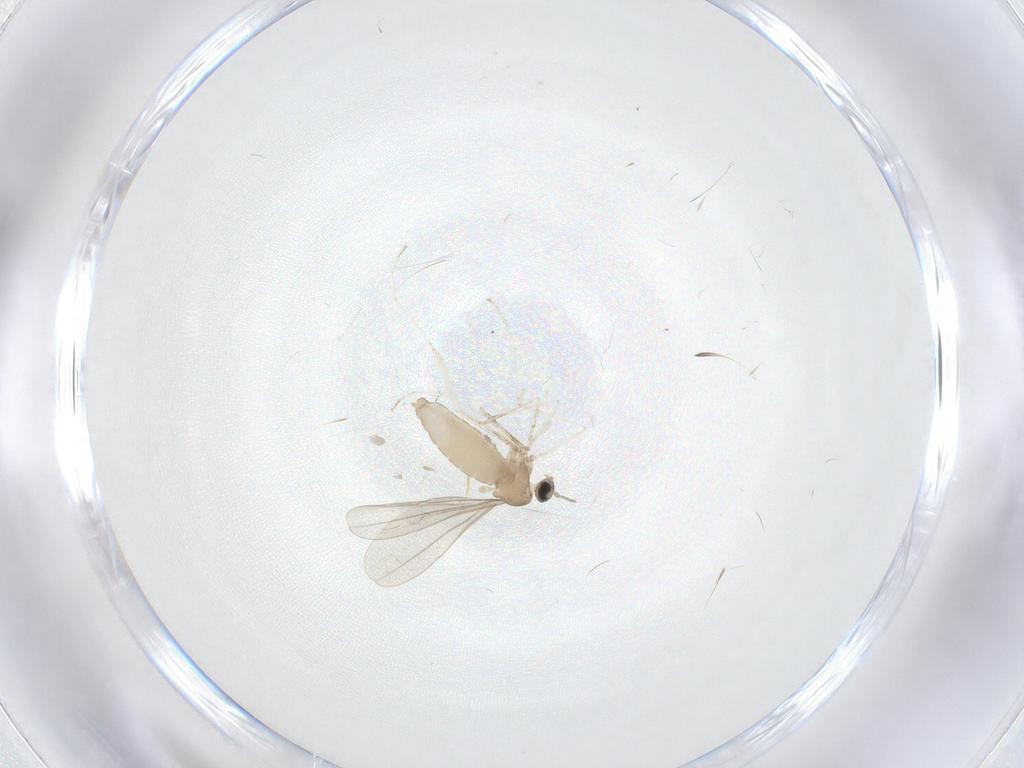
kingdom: Animalia
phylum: Arthropoda
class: Insecta
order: Diptera
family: Cecidomyiidae
